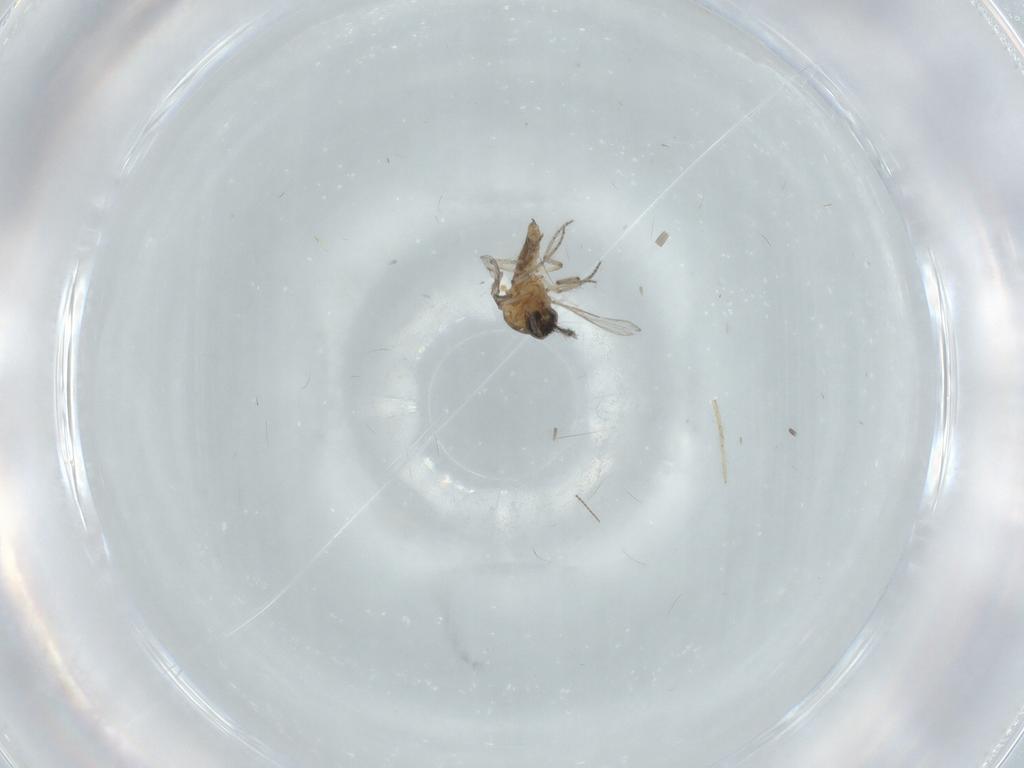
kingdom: Animalia
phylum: Arthropoda
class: Insecta
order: Diptera
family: Ceratopogonidae
